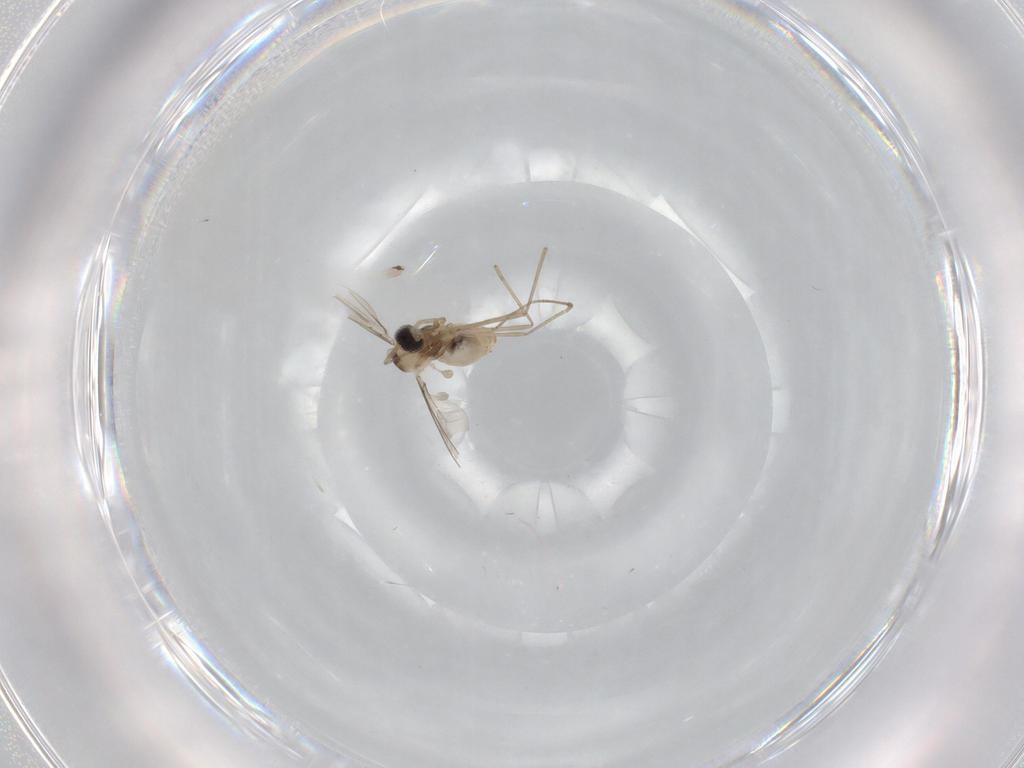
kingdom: Animalia
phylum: Arthropoda
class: Insecta
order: Diptera
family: Cecidomyiidae
